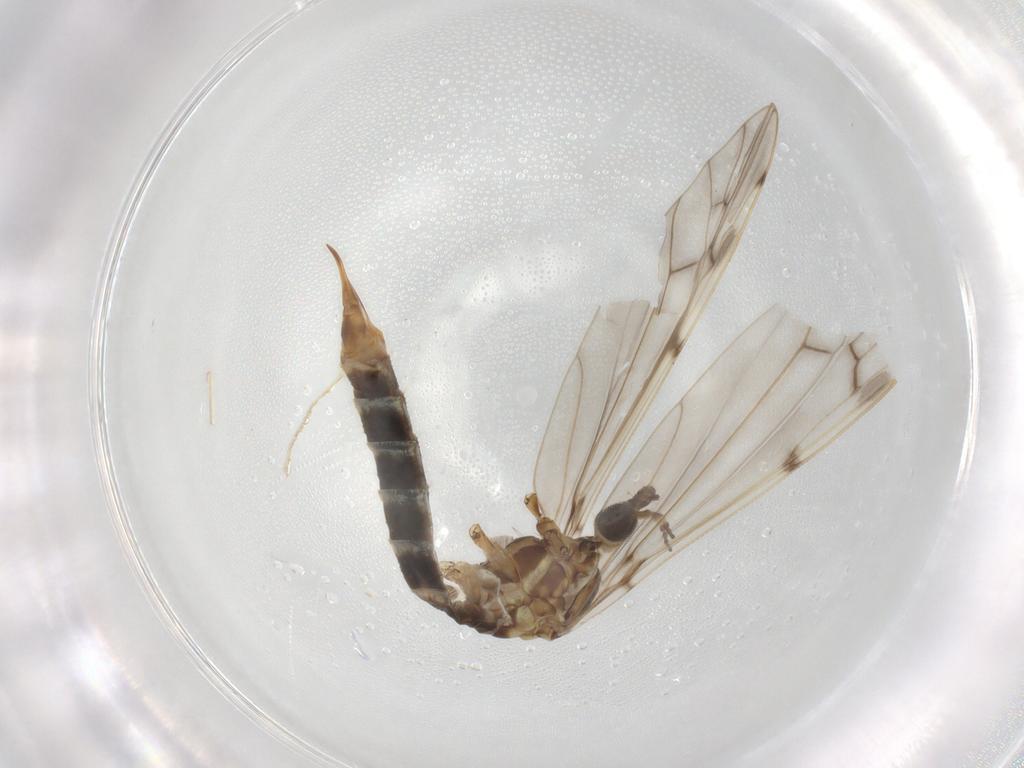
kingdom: Animalia
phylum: Arthropoda
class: Insecta
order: Diptera
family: Limoniidae
